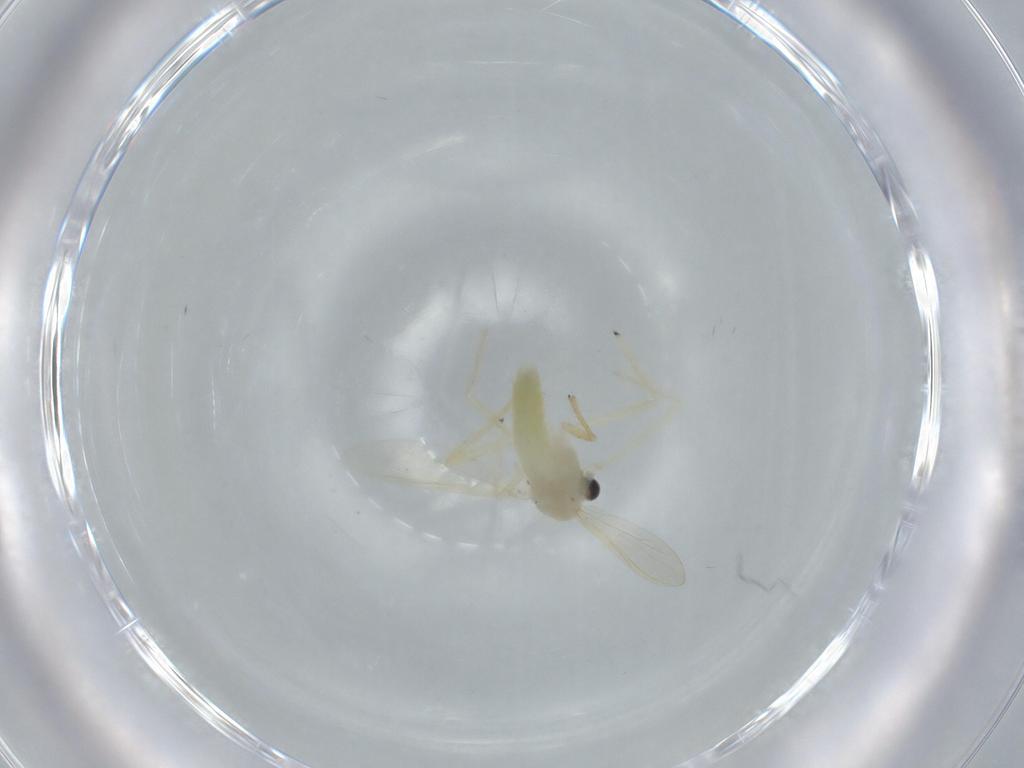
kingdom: Animalia
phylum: Arthropoda
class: Insecta
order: Diptera
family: Chironomidae
